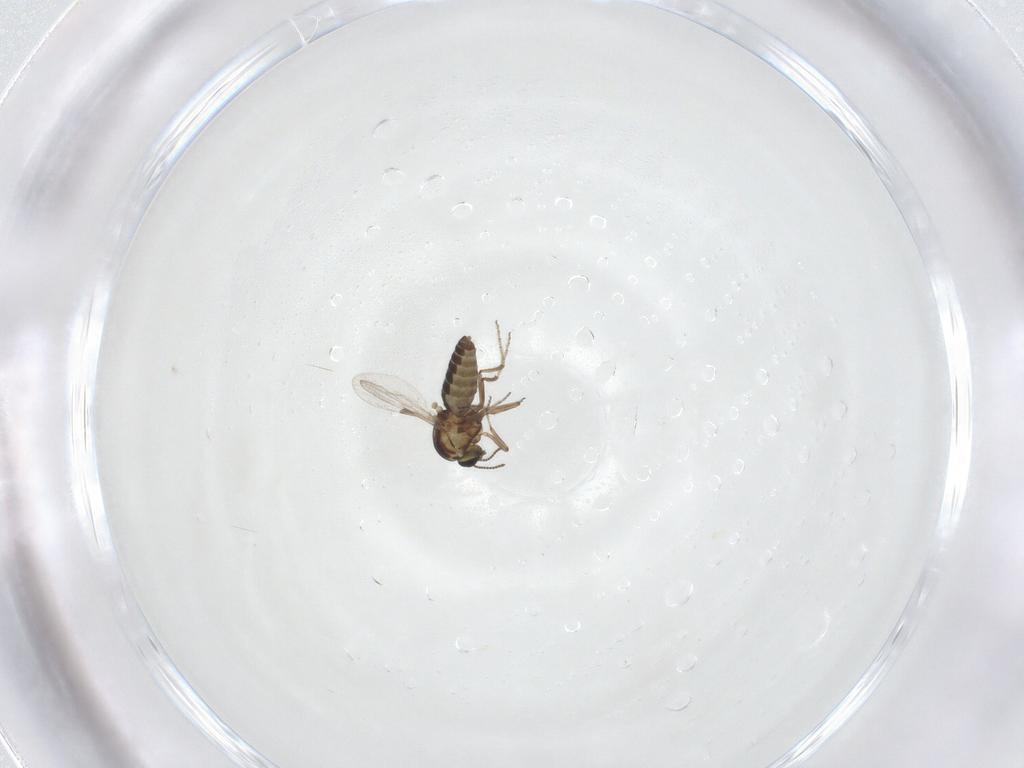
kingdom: Animalia
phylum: Arthropoda
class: Insecta
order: Diptera
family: Ceratopogonidae
